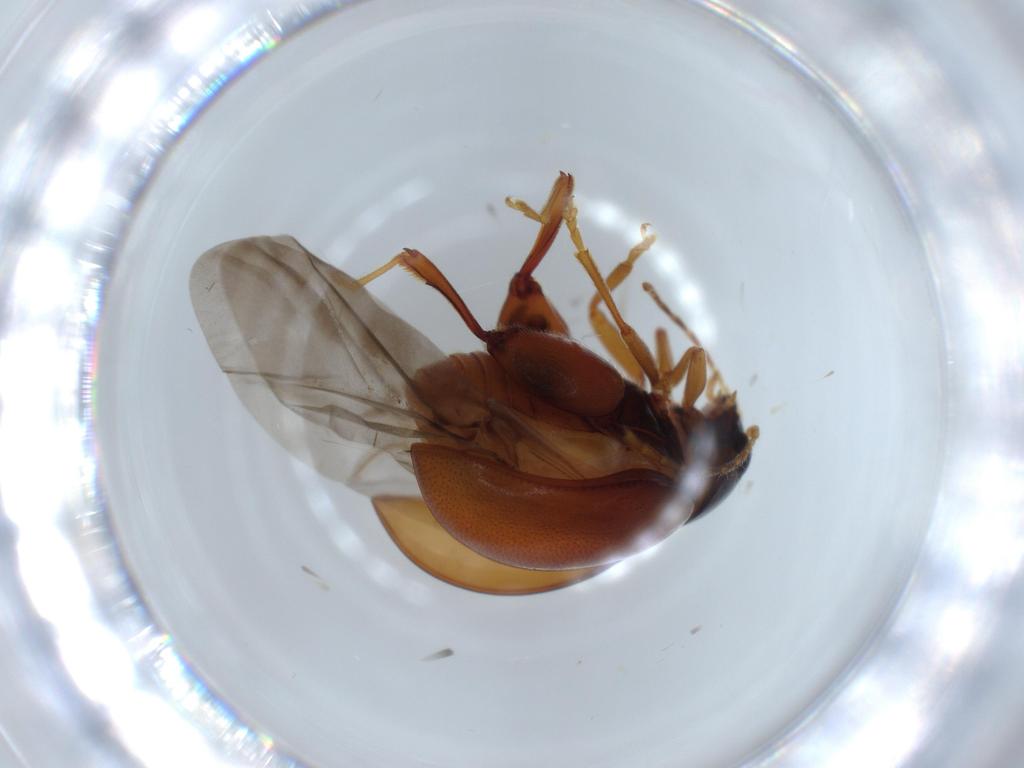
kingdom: Animalia
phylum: Arthropoda
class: Insecta
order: Coleoptera
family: Chrysomelidae
